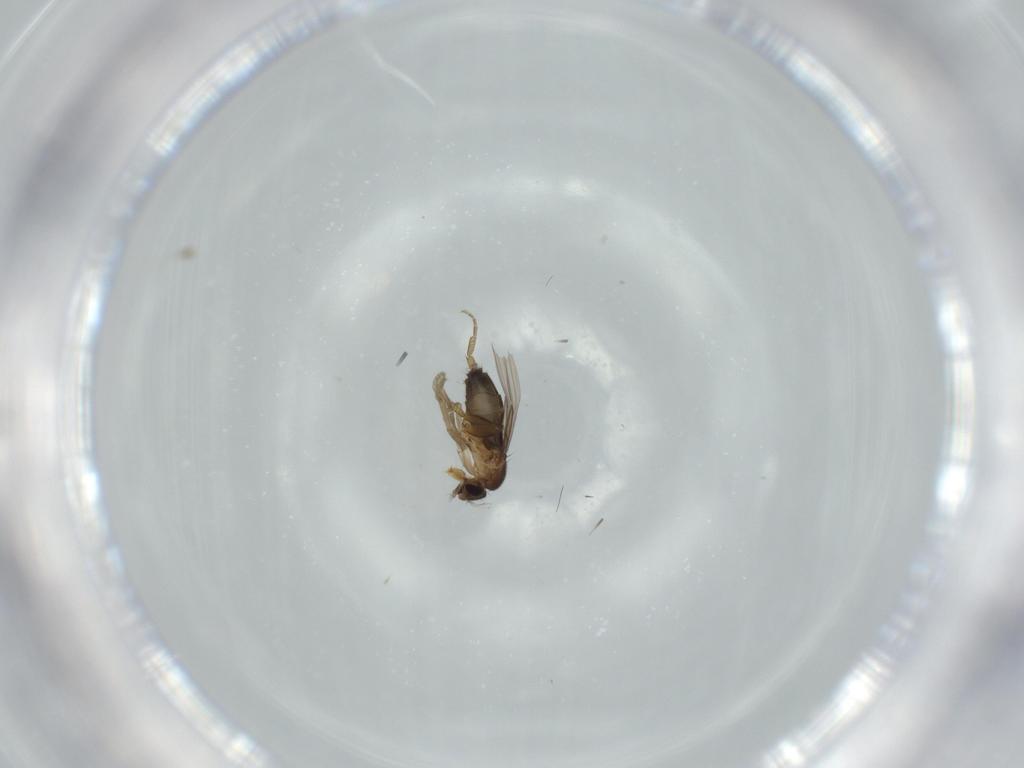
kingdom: Animalia
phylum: Arthropoda
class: Insecta
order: Diptera
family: Phoridae
